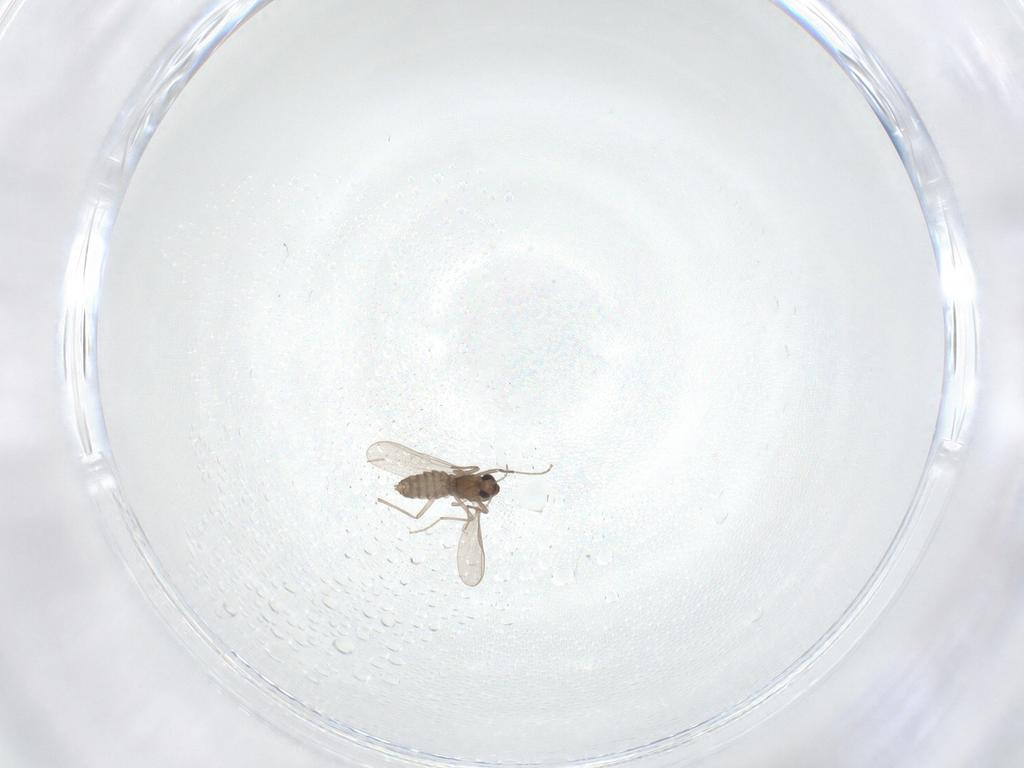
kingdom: Animalia
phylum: Arthropoda
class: Insecta
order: Diptera
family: Chironomidae
